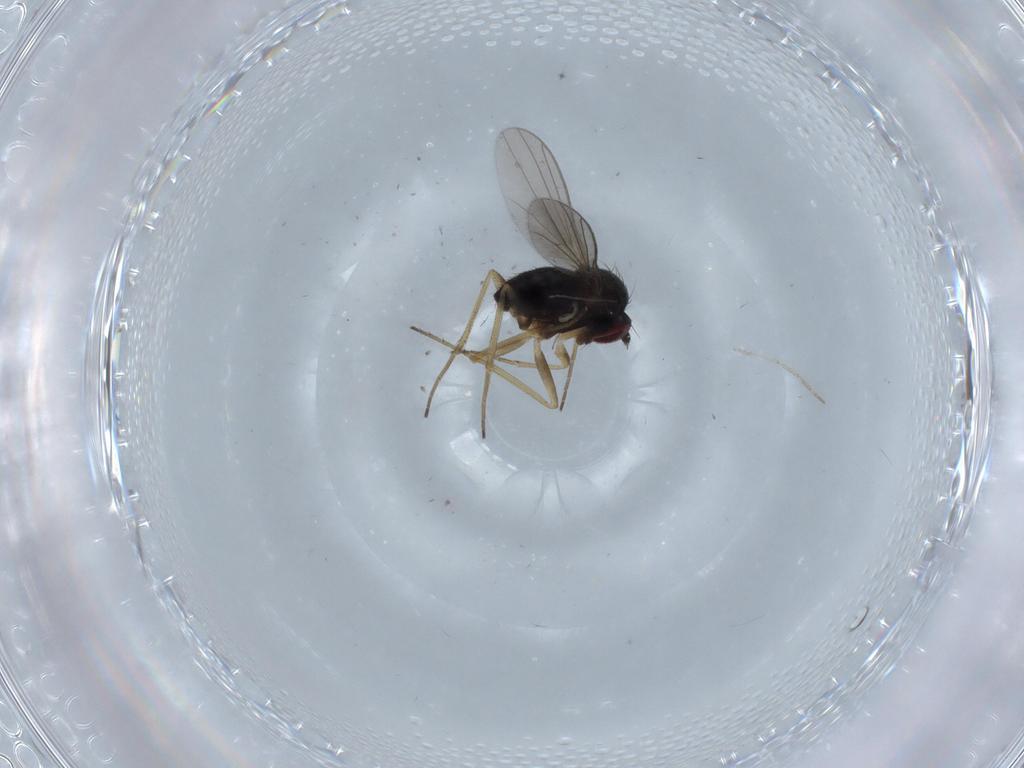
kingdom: Animalia
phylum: Arthropoda
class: Insecta
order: Diptera
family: Dolichopodidae
